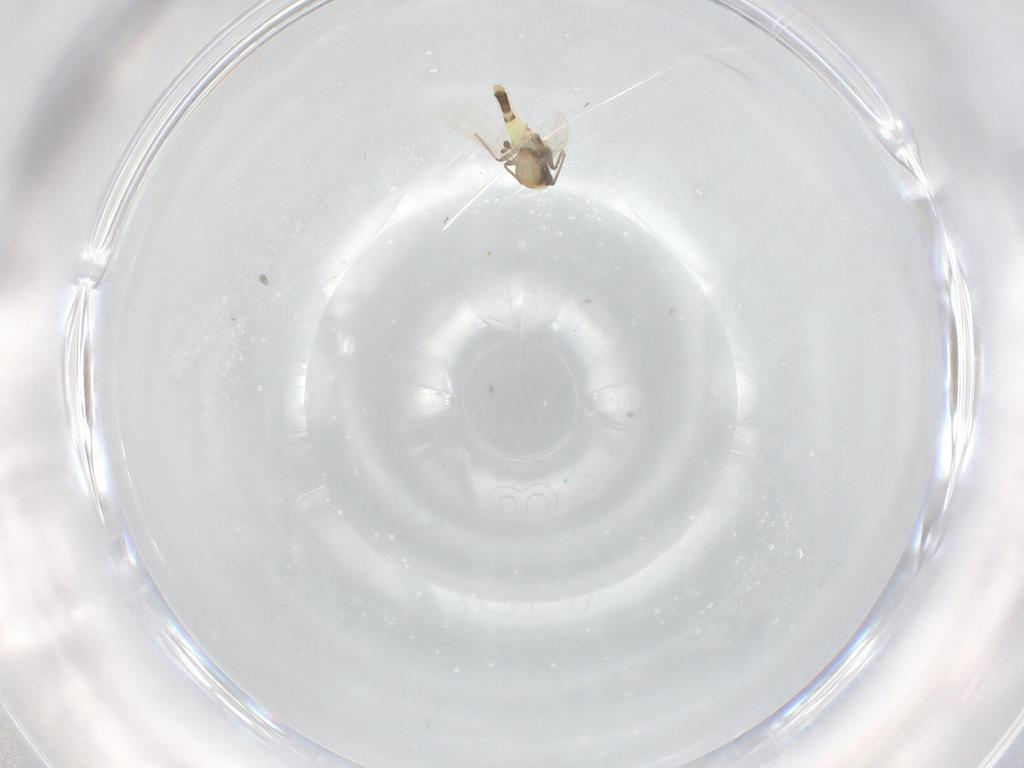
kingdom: Animalia
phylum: Arthropoda
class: Insecta
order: Diptera
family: Chironomidae
